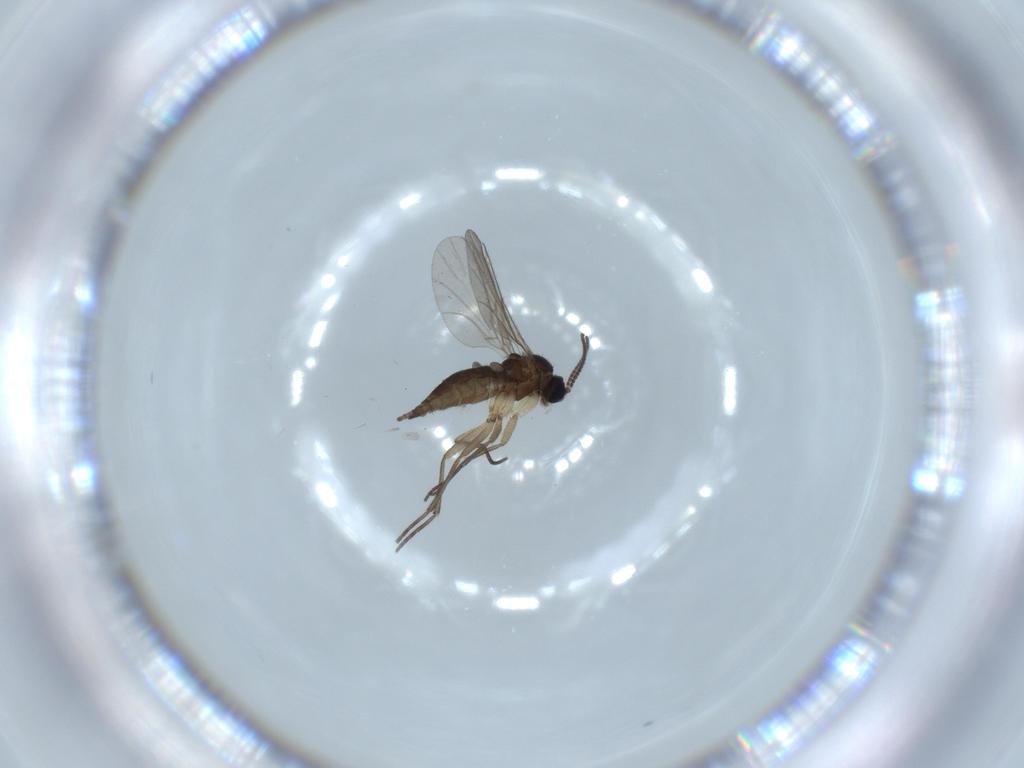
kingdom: Animalia
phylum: Arthropoda
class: Insecta
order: Diptera
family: Sciaridae
